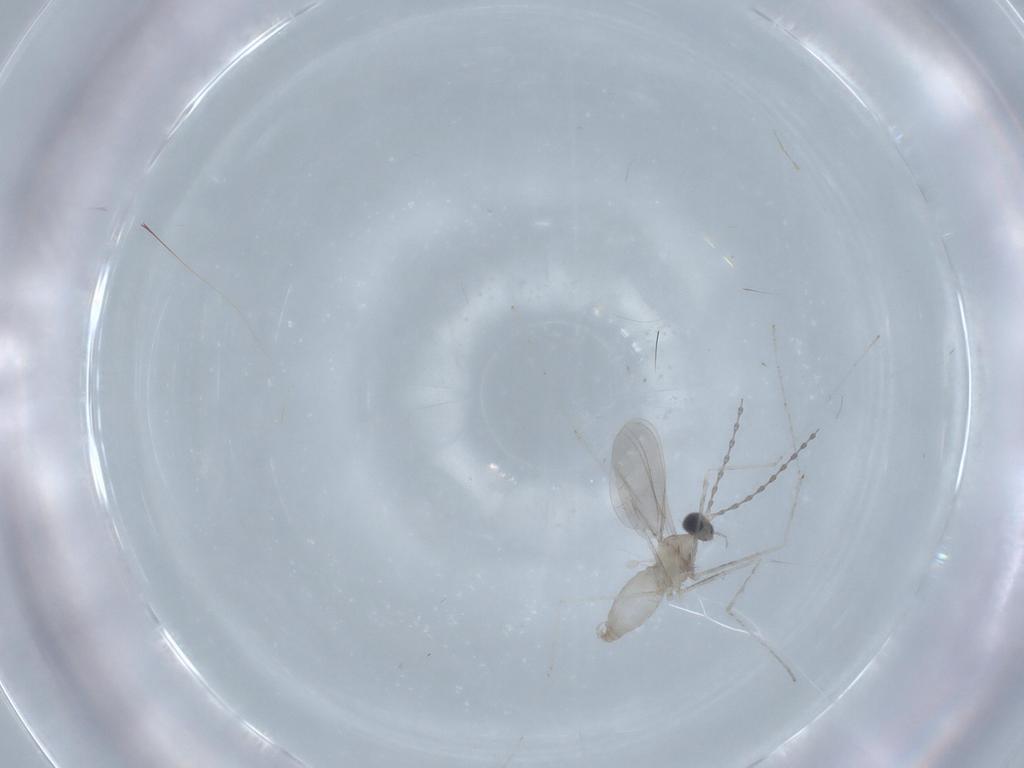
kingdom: Animalia
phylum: Arthropoda
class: Insecta
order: Diptera
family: Cecidomyiidae
